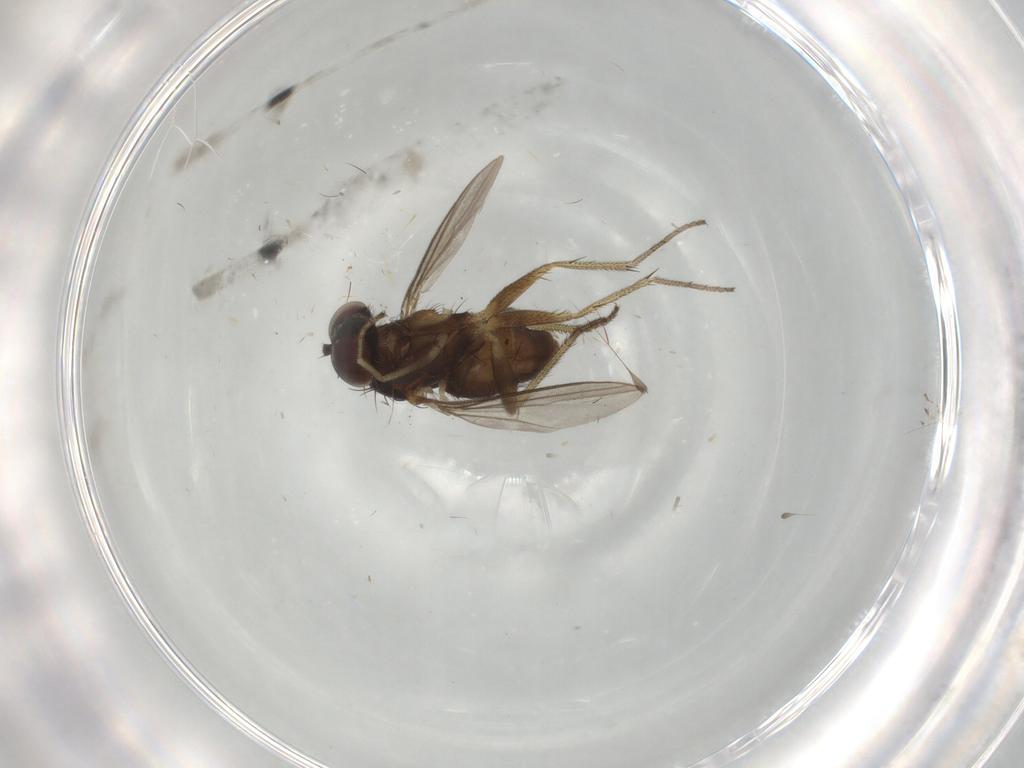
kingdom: Animalia
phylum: Arthropoda
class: Insecta
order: Diptera
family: Dolichopodidae
